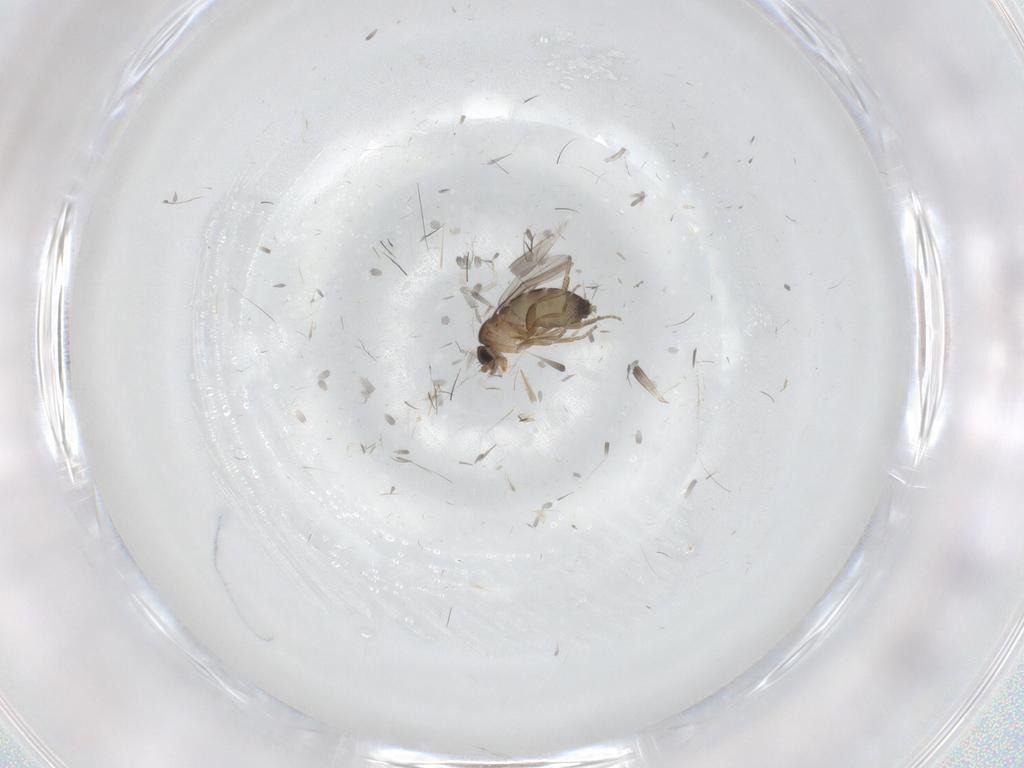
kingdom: Animalia
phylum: Arthropoda
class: Insecta
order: Diptera
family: Phoridae
